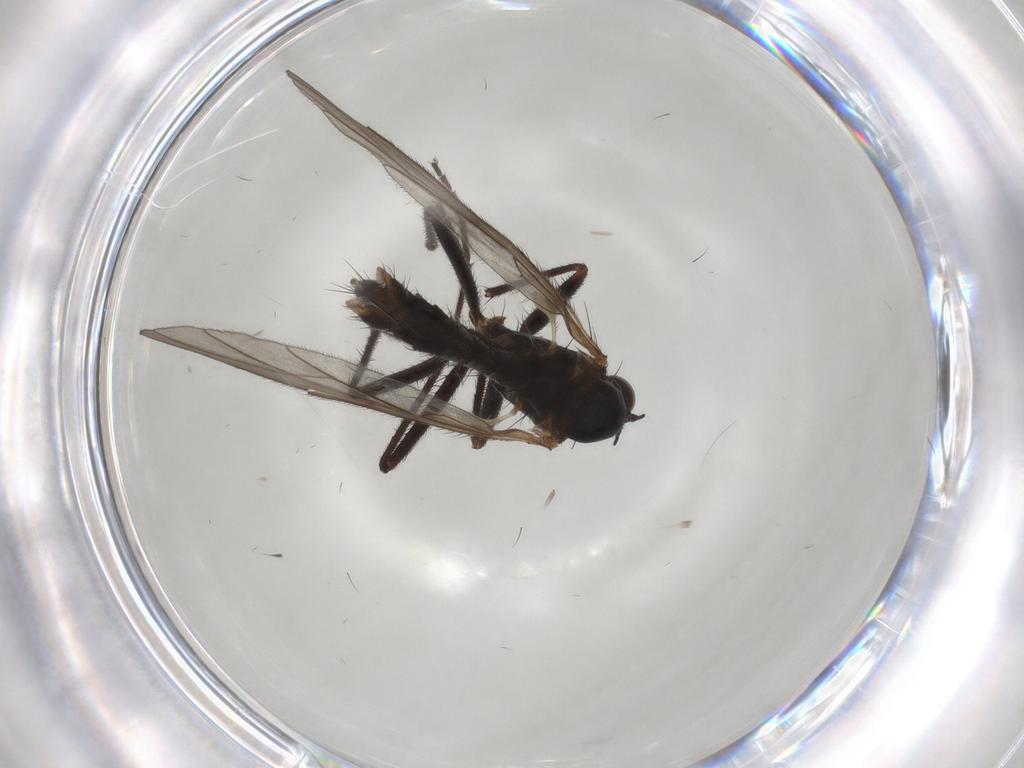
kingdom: Animalia
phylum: Arthropoda
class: Insecta
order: Diptera
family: Empididae
